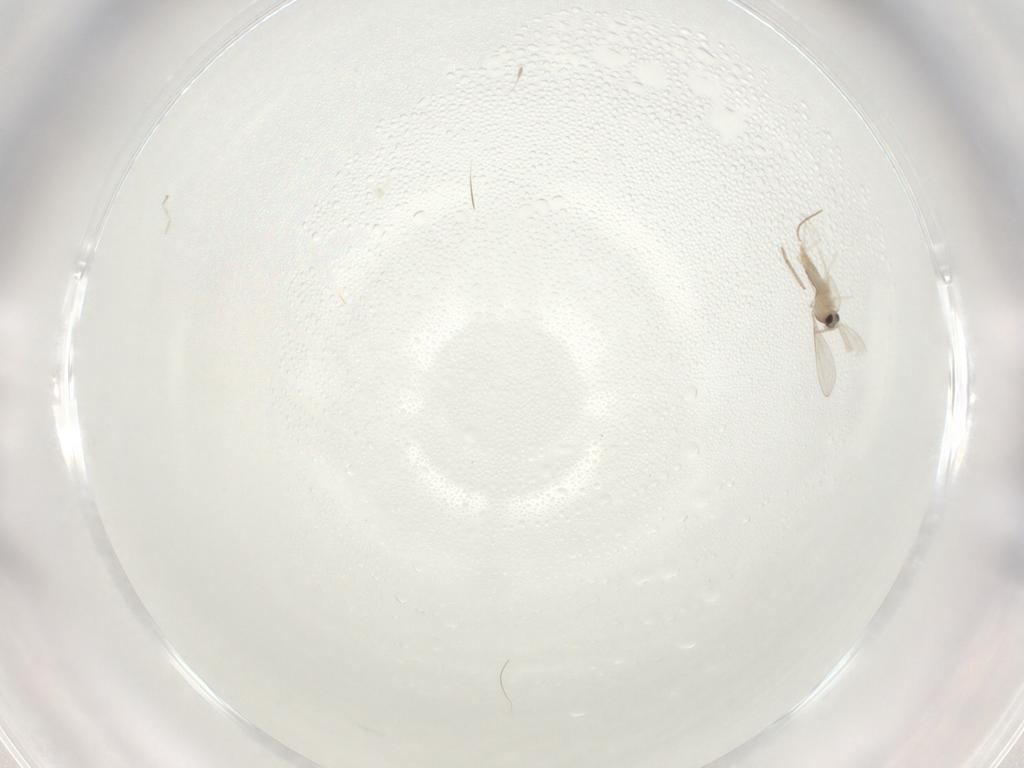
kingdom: Animalia
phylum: Arthropoda
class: Insecta
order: Diptera
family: Cecidomyiidae
